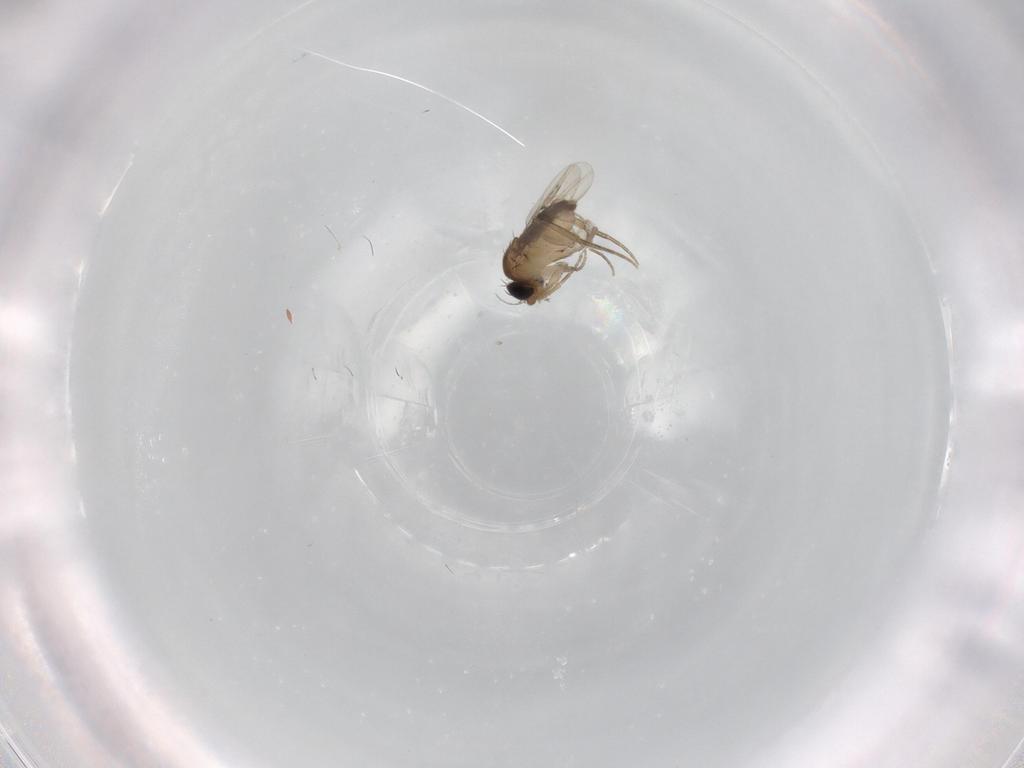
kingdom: Animalia
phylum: Arthropoda
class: Insecta
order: Diptera
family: Phoridae
